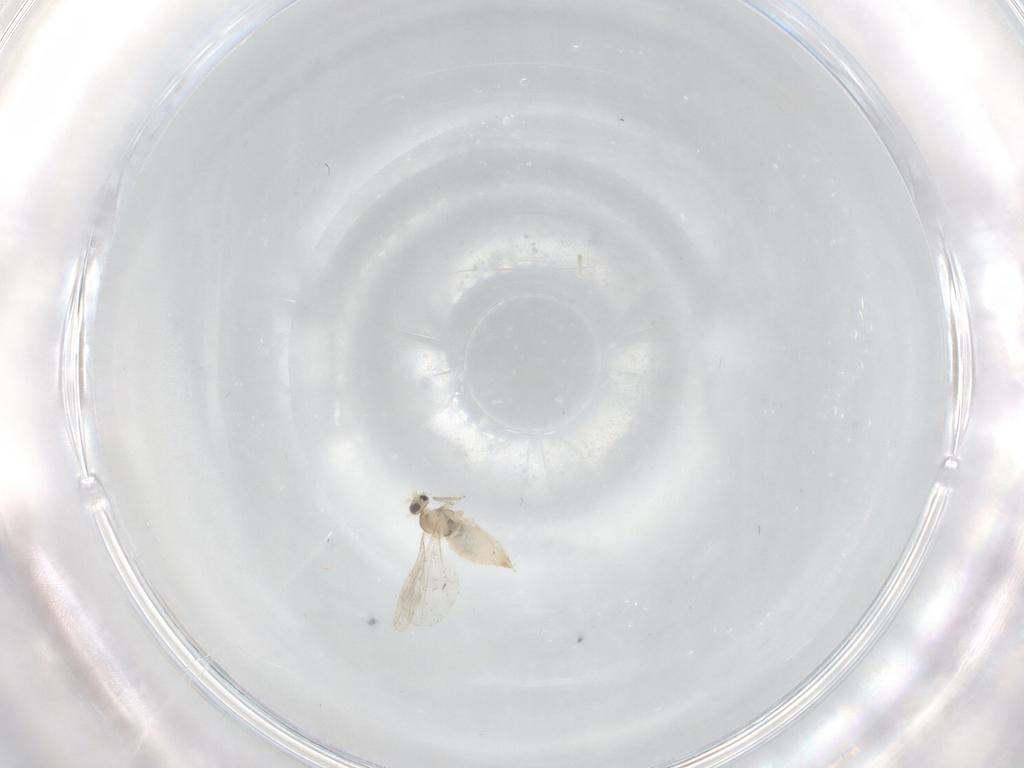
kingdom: Animalia
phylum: Arthropoda
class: Insecta
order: Diptera
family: Cecidomyiidae
